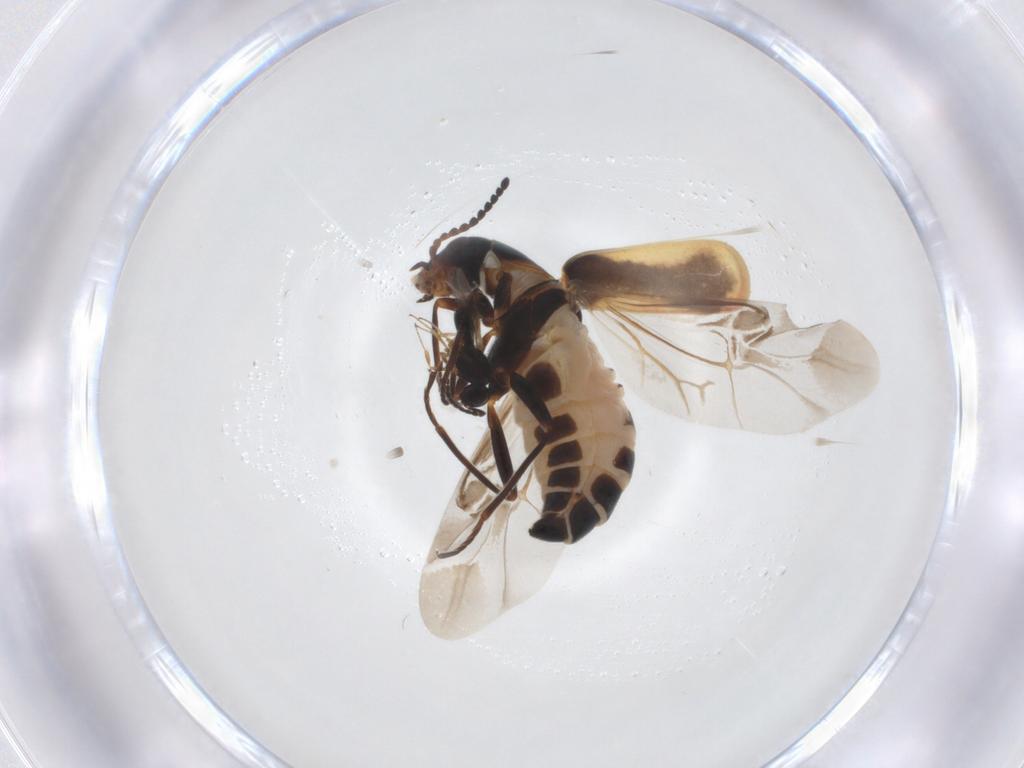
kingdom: Animalia
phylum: Arthropoda
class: Insecta
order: Coleoptera
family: Melyridae
